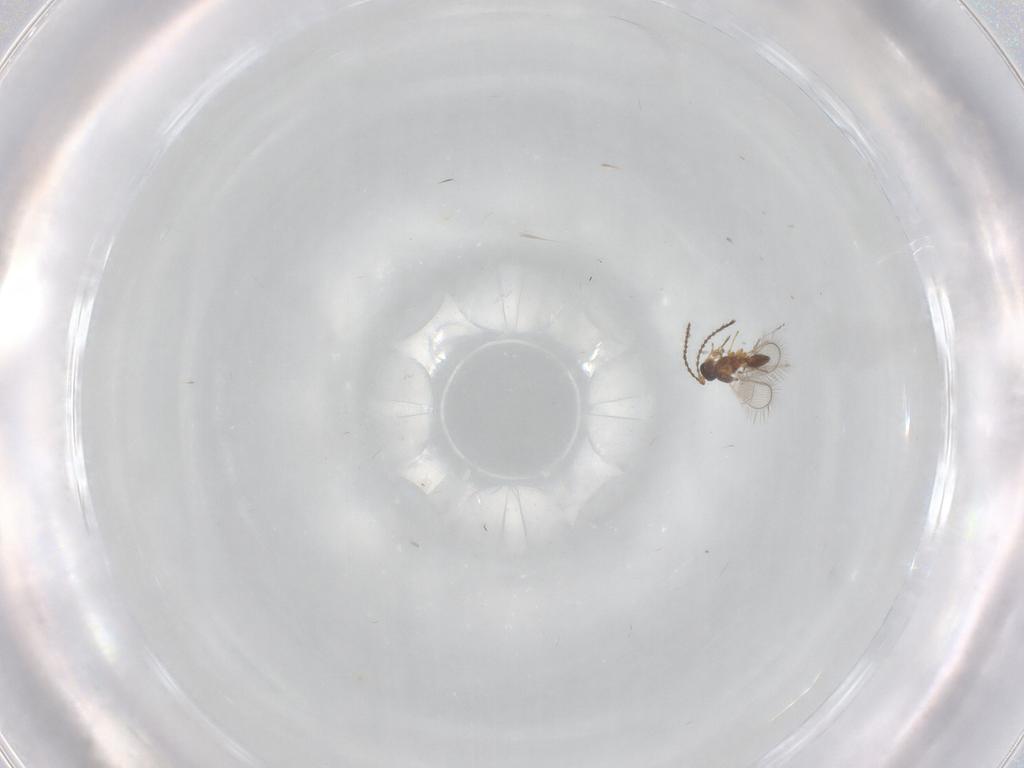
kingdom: Animalia
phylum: Arthropoda
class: Insecta
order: Hymenoptera
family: Diapriidae
